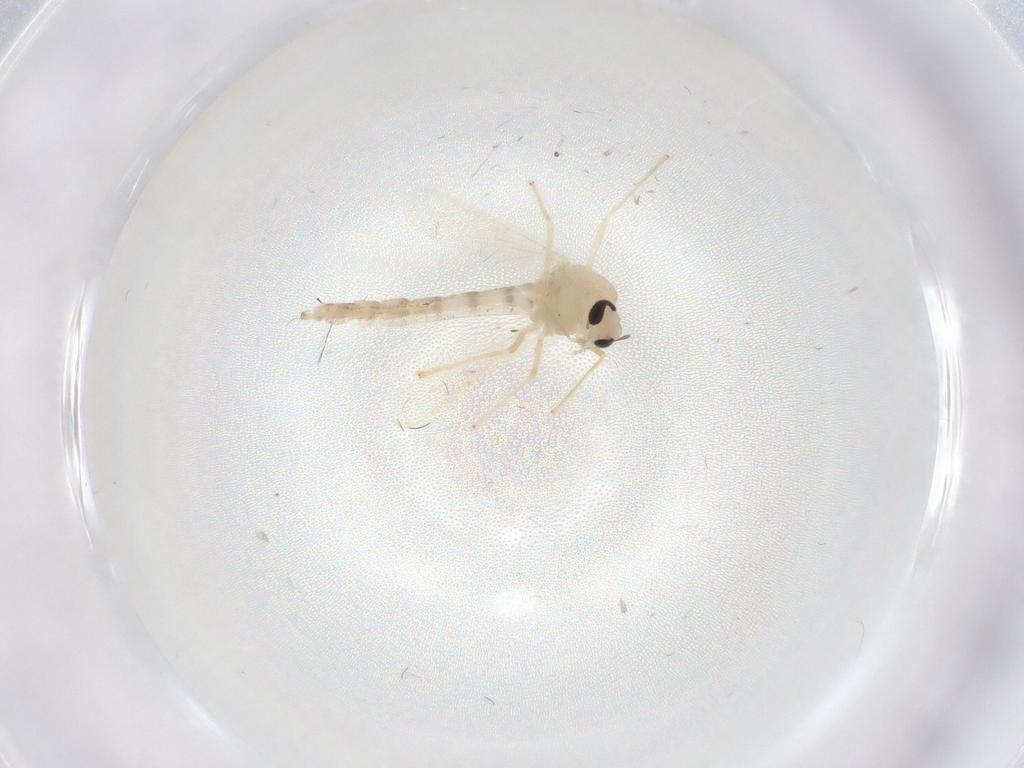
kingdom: Animalia
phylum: Arthropoda
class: Insecta
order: Diptera
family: Chironomidae
